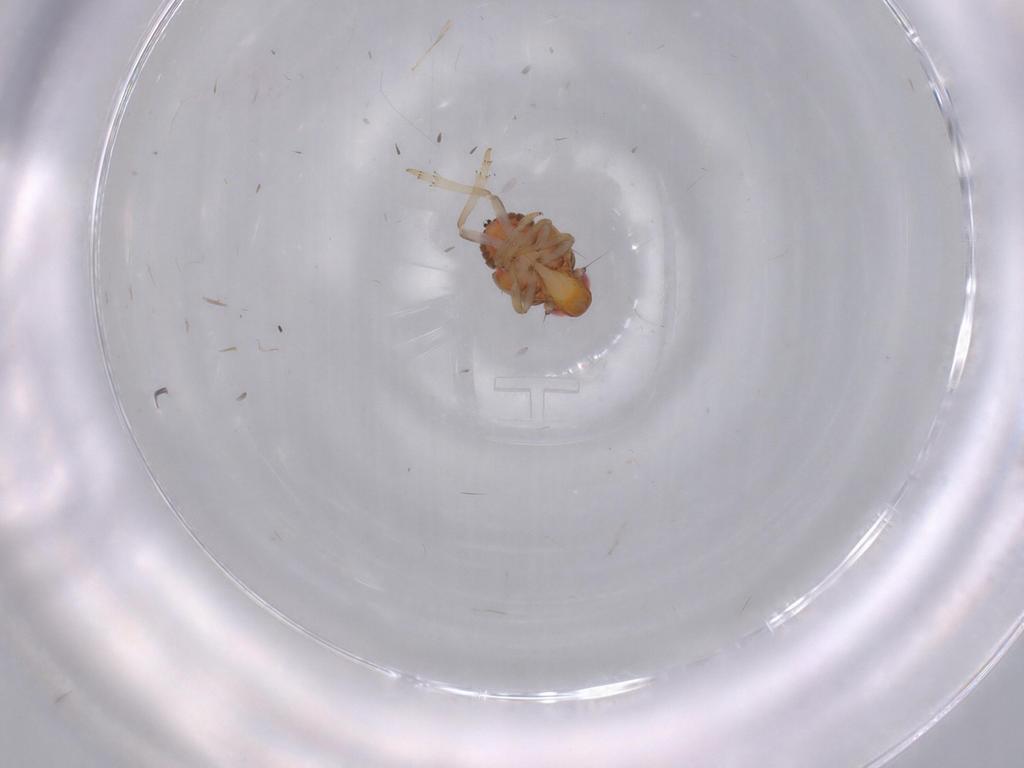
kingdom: Animalia
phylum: Arthropoda
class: Insecta
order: Hemiptera
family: Issidae
